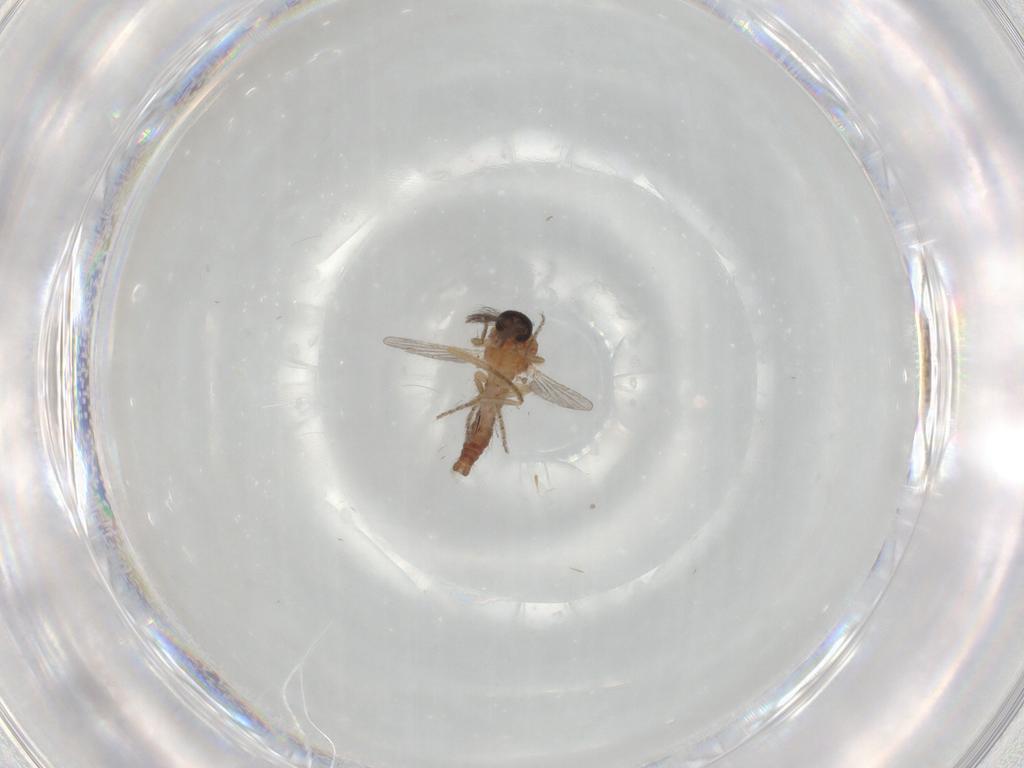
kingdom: Animalia
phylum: Arthropoda
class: Insecta
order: Diptera
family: Ceratopogonidae
